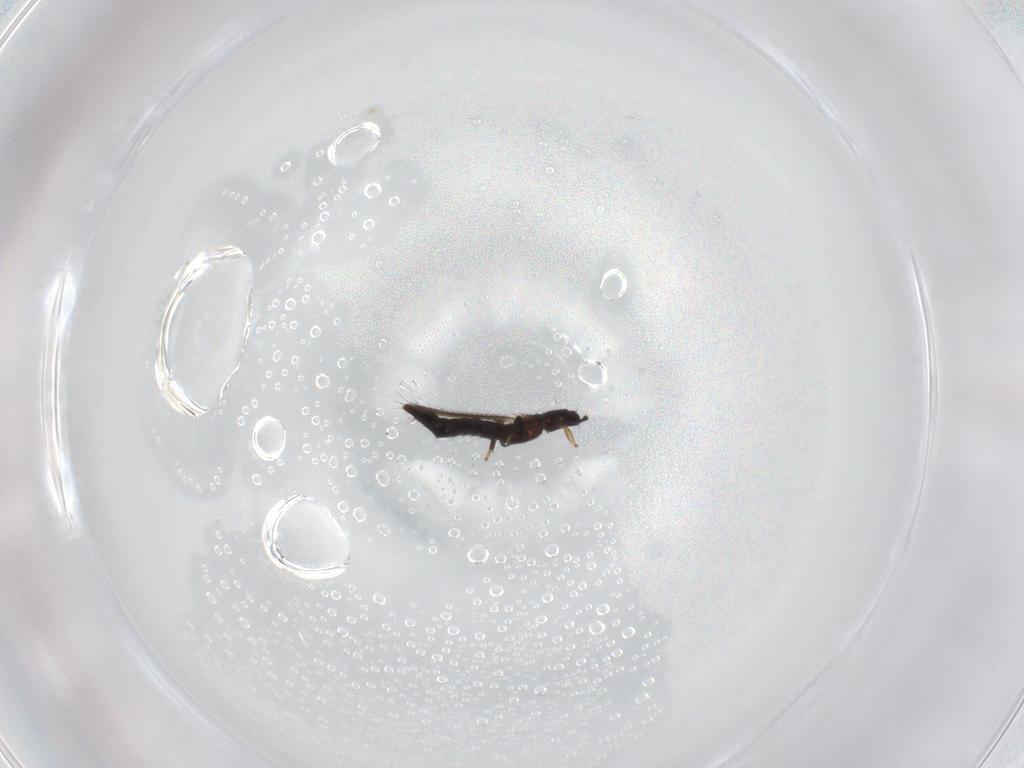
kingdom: Animalia
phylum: Arthropoda
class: Insecta
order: Thysanoptera
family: Thripidae
